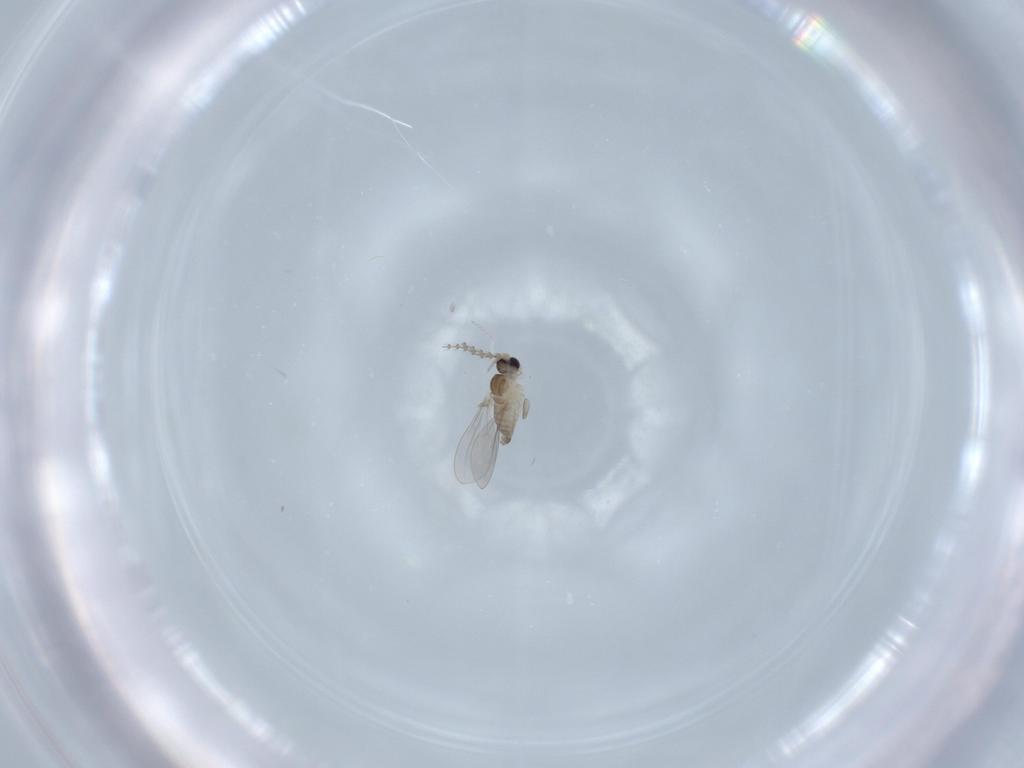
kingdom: Animalia
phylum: Arthropoda
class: Insecta
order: Diptera
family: Cecidomyiidae
